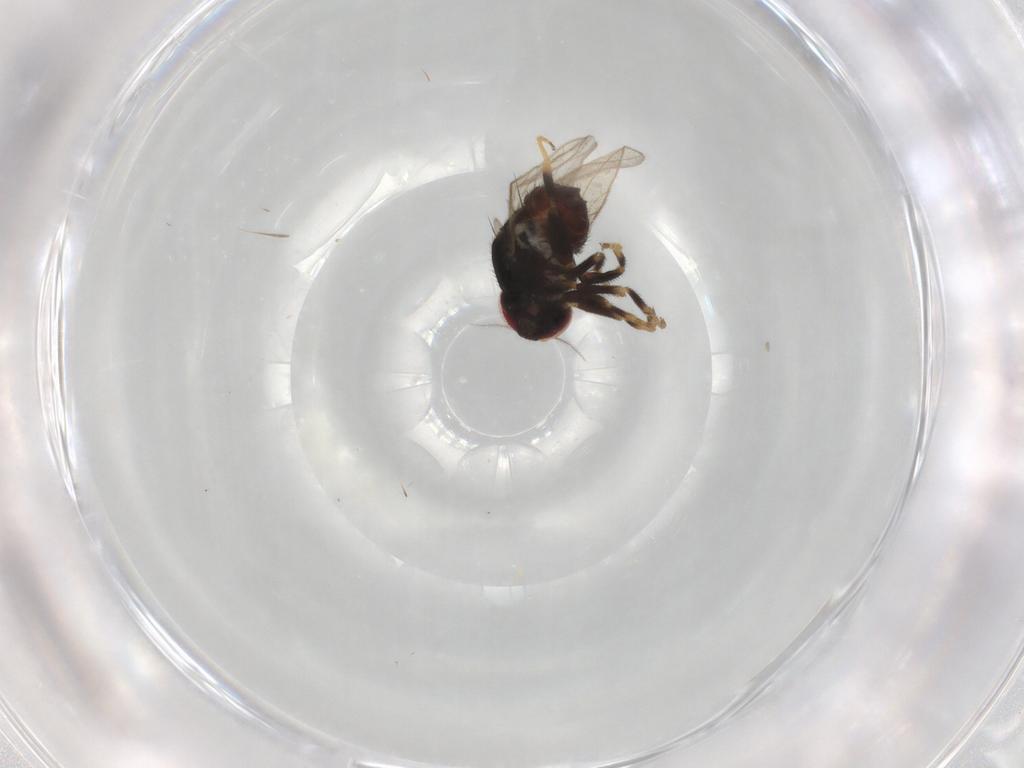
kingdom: Animalia
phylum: Arthropoda
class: Insecta
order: Diptera
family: Chloropidae
